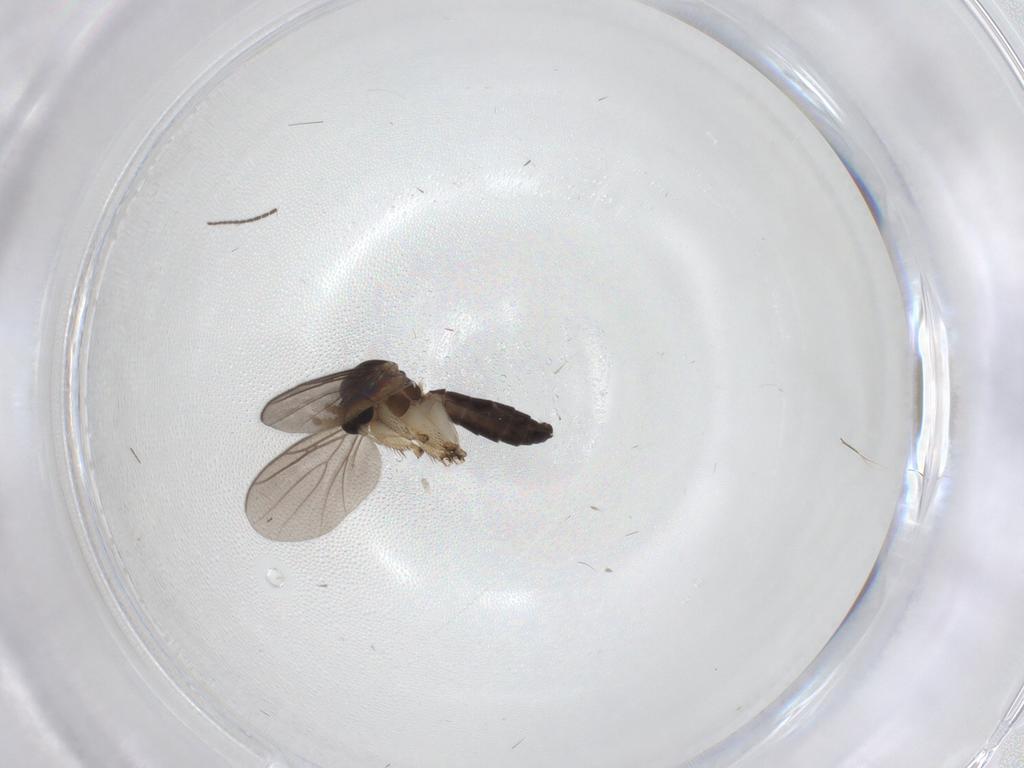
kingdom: Animalia
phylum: Arthropoda
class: Insecta
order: Diptera
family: Mycetophilidae
